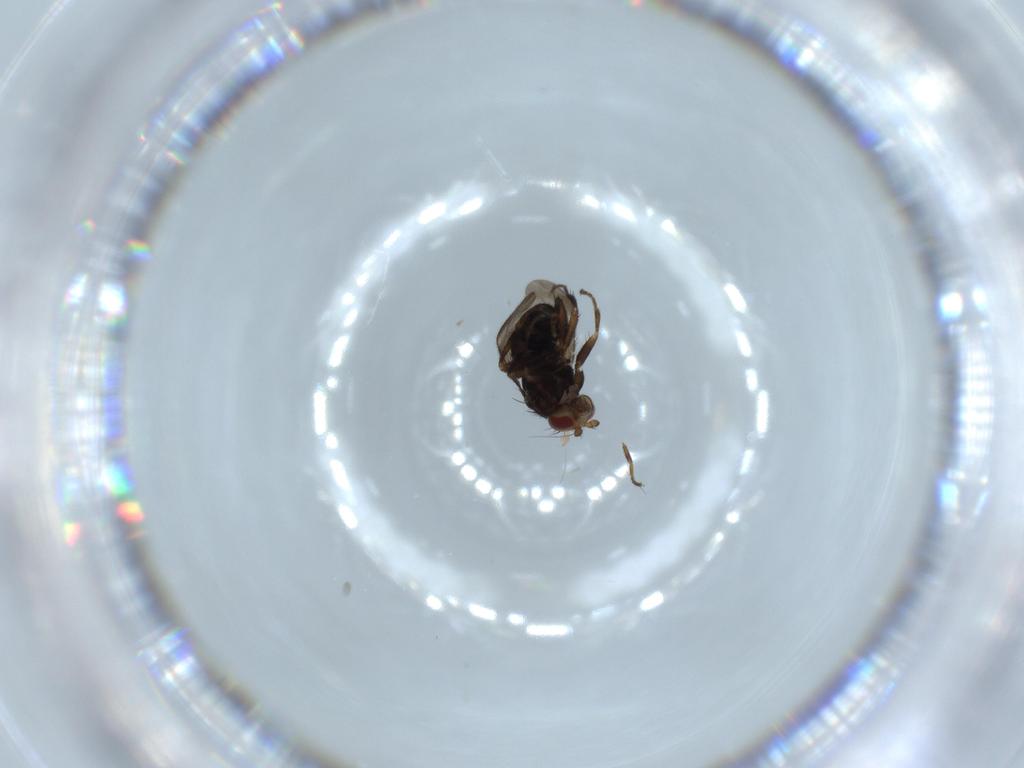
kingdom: Animalia
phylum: Arthropoda
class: Insecta
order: Diptera
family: Sphaeroceridae
